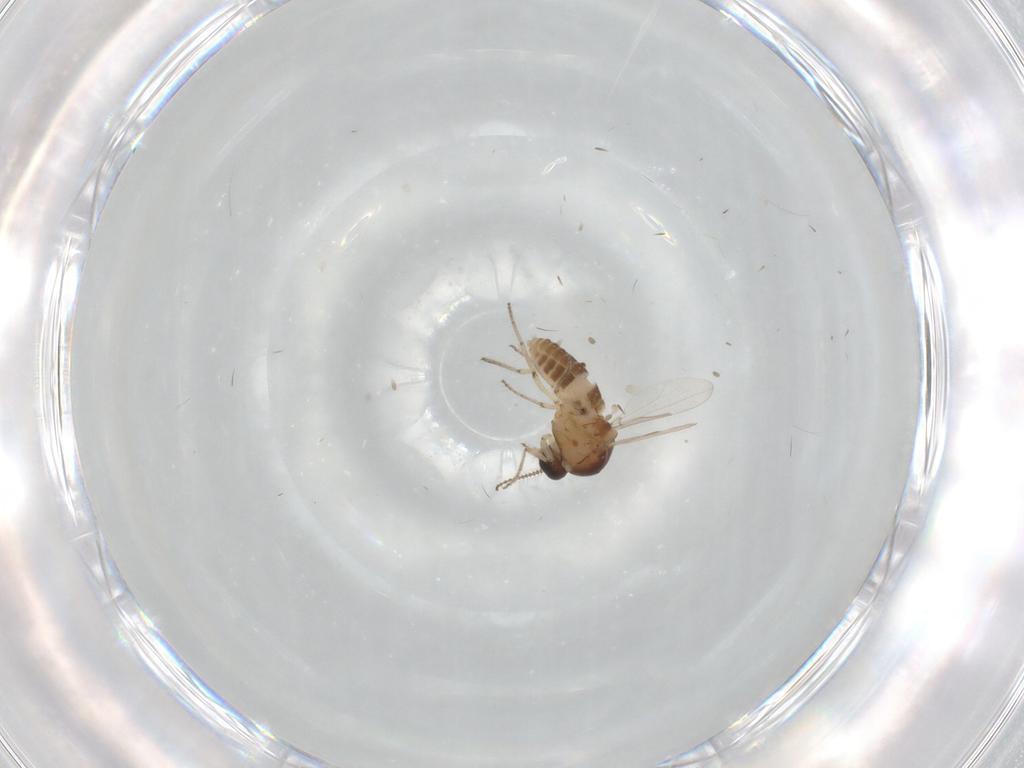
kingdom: Animalia
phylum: Arthropoda
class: Insecta
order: Diptera
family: Ceratopogonidae
